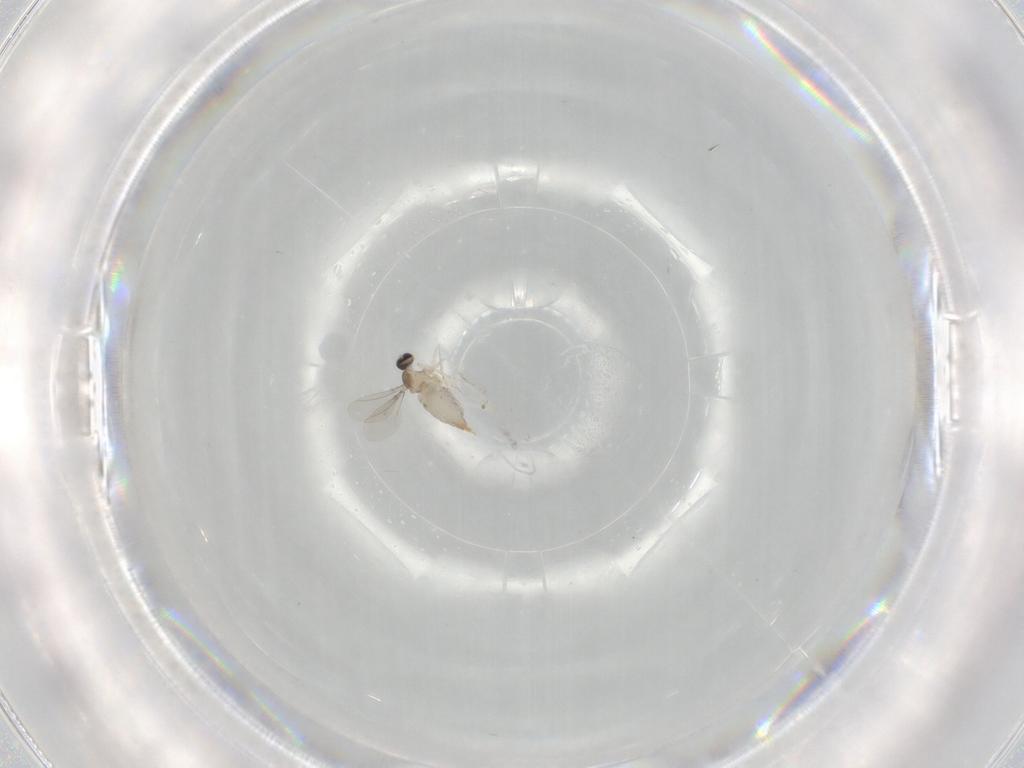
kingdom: Animalia
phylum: Arthropoda
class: Insecta
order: Diptera
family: Cecidomyiidae
